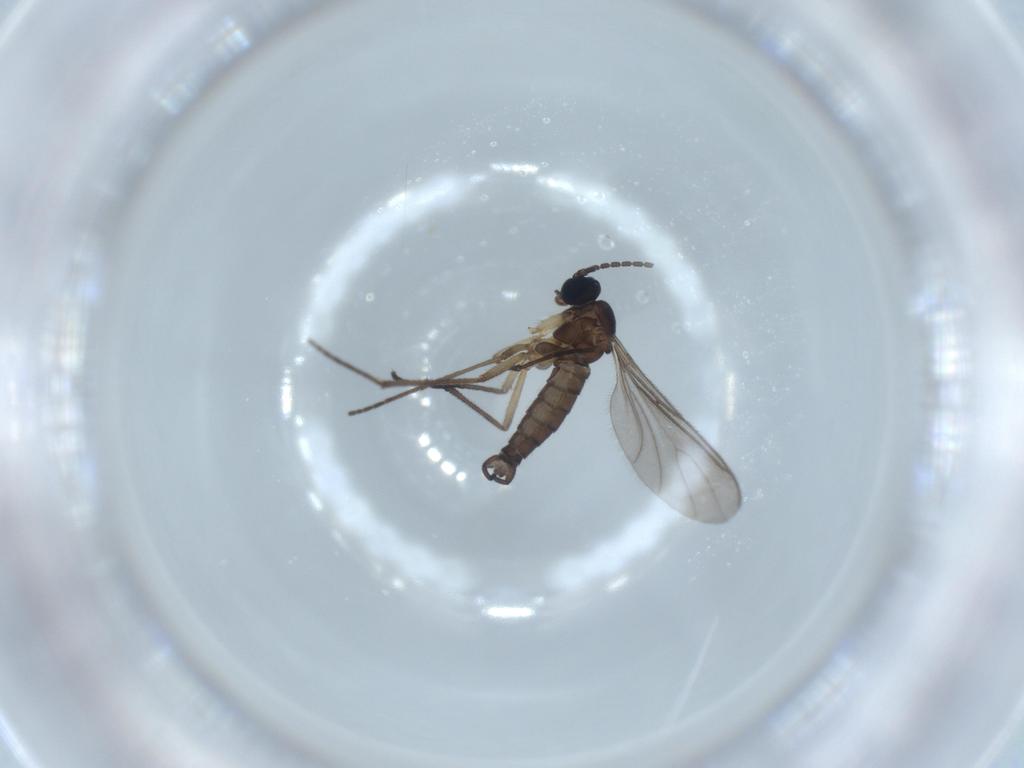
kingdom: Animalia
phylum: Arthropoda
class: Insecta
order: Diptera
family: Sciaridae
